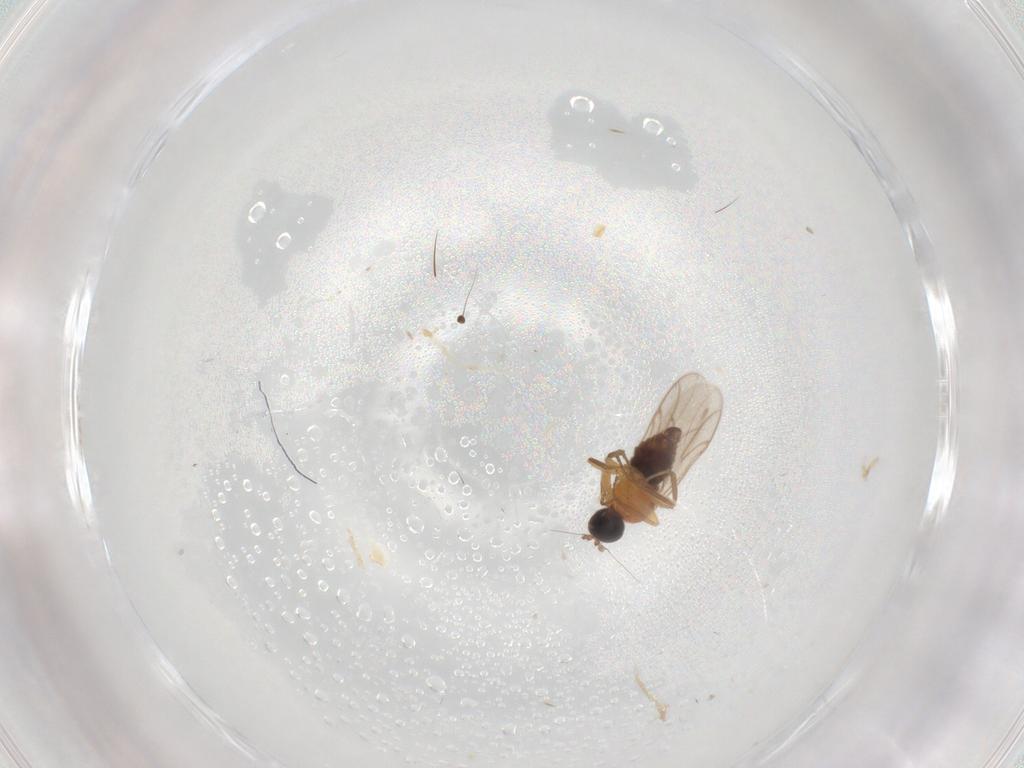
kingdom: Animalia
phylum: Arthropoda
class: Insecta
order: Diptera
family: Hybotidae
